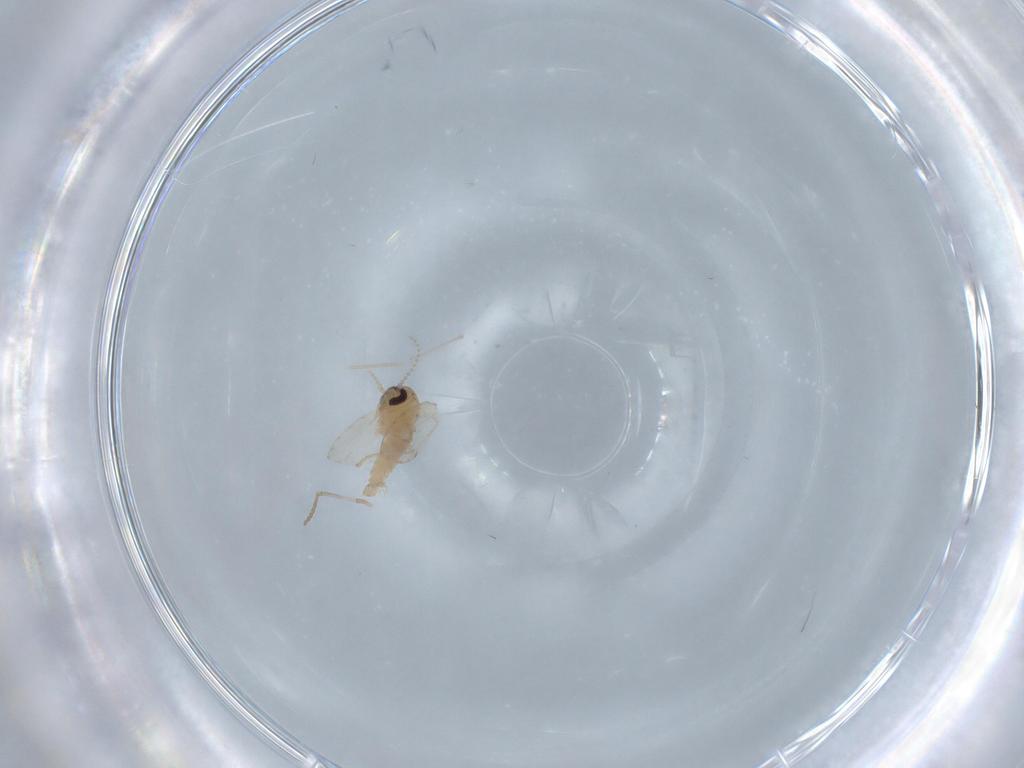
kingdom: Animalia
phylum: Arthropoda
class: Insecta
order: Diptera
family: Psychodidae
